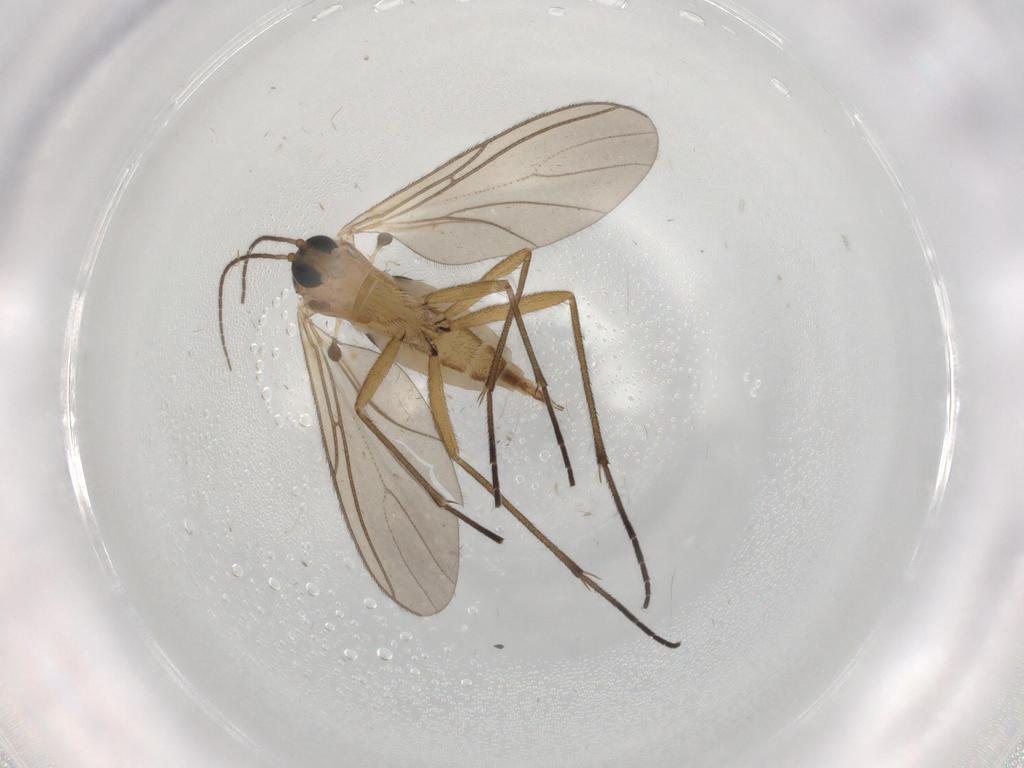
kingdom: Animalia
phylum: Arthropoda
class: Insecta
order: Diptera
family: Sciaridae
